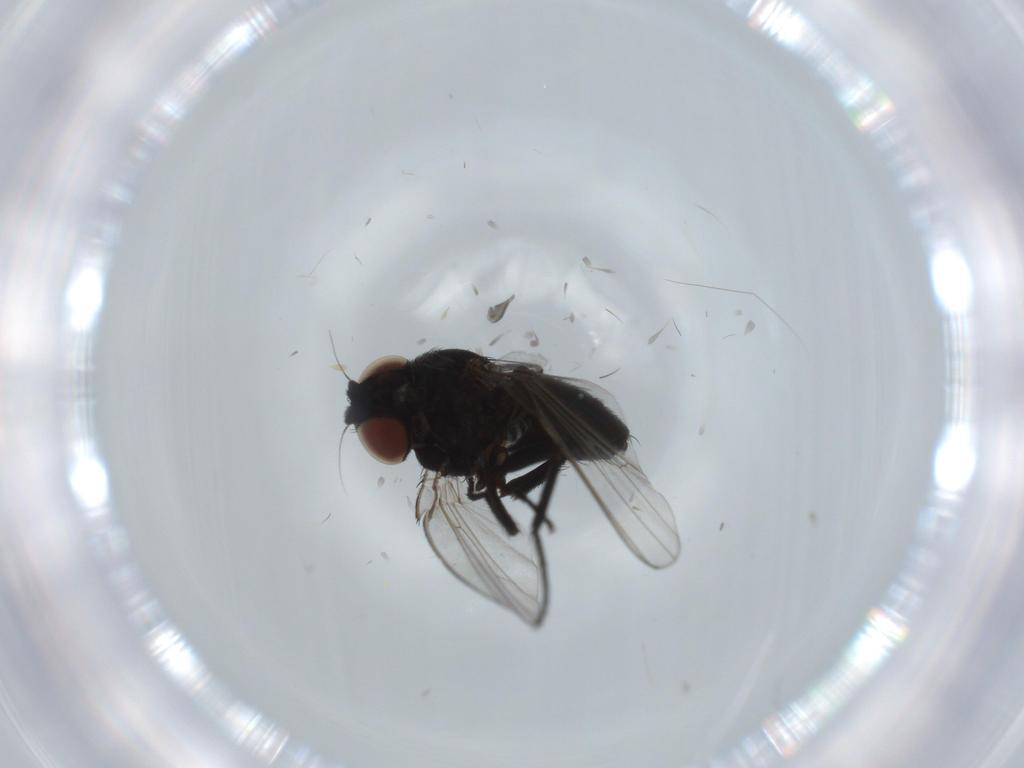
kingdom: Animalia
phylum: Arthropoda
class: Insecta
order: Diptera
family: Milichiidae
